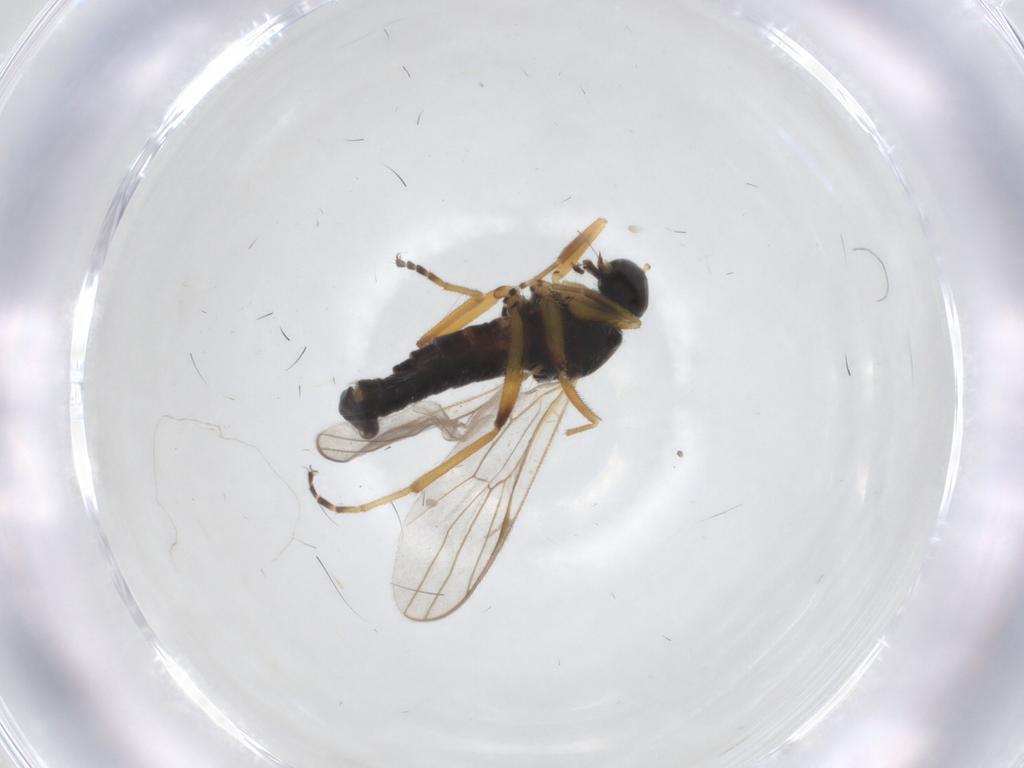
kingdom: Animalia
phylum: Arthropoda
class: Insecta
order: Diptera
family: Hybotidae
